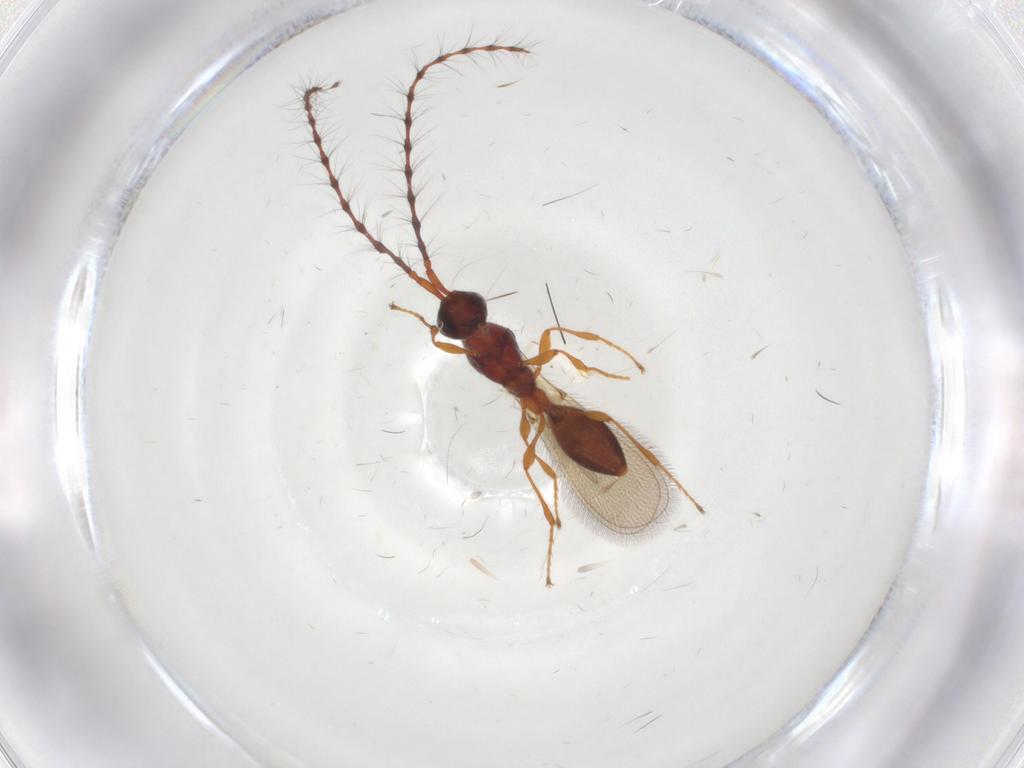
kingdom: Animalia
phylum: Arthropoda
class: Insecta
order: Hymenoptera
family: Diapriidae
